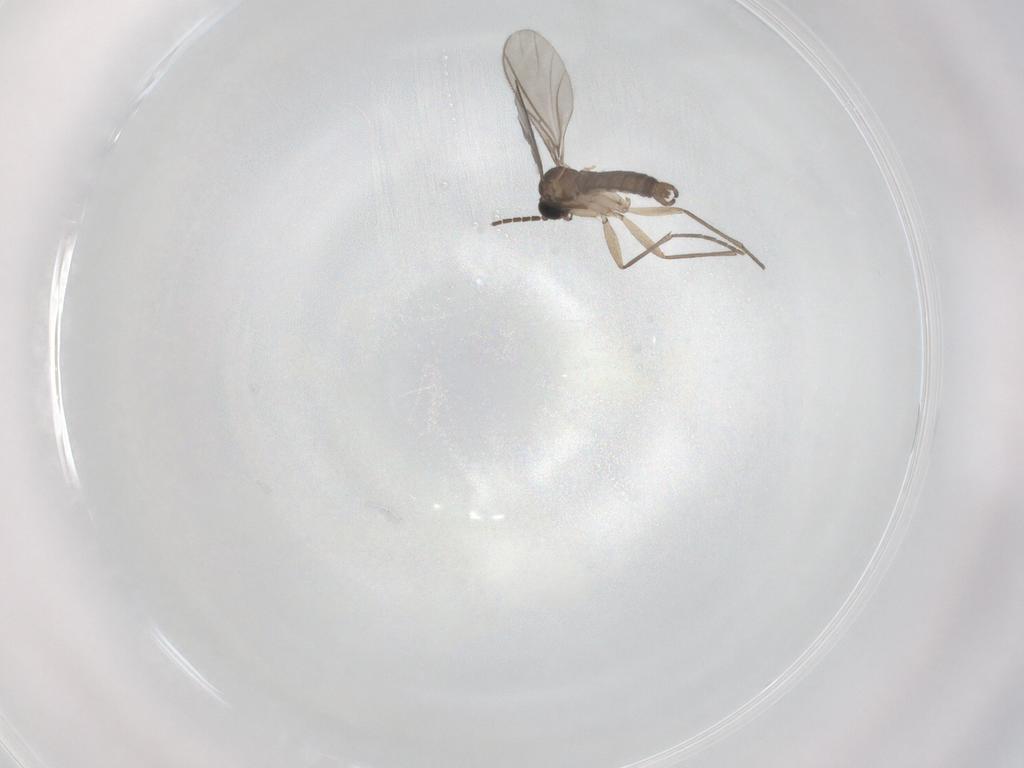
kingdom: Animalia
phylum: Arthropoda
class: Insecta
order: Diptera
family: Sciaridae
